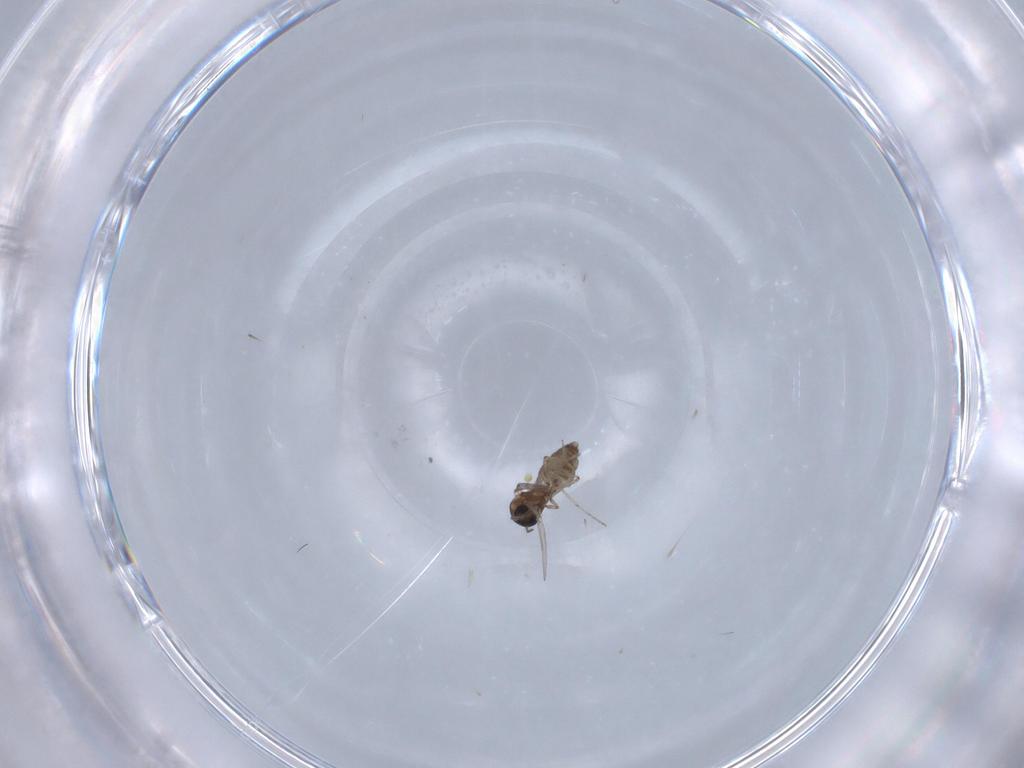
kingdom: Animalia
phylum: Arthropoda
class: Insecta
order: Diptera
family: Ceratopogonidae
